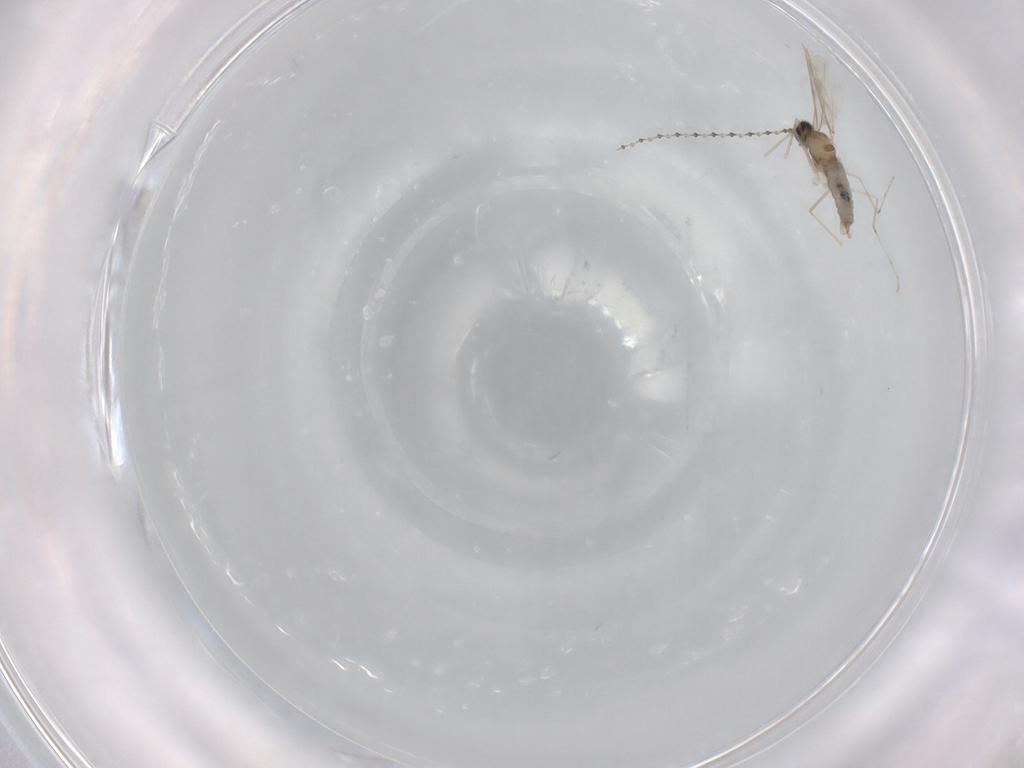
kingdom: Animalia
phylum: Arthropoda
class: Insecta
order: Diptera
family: Cecidomyiidae
